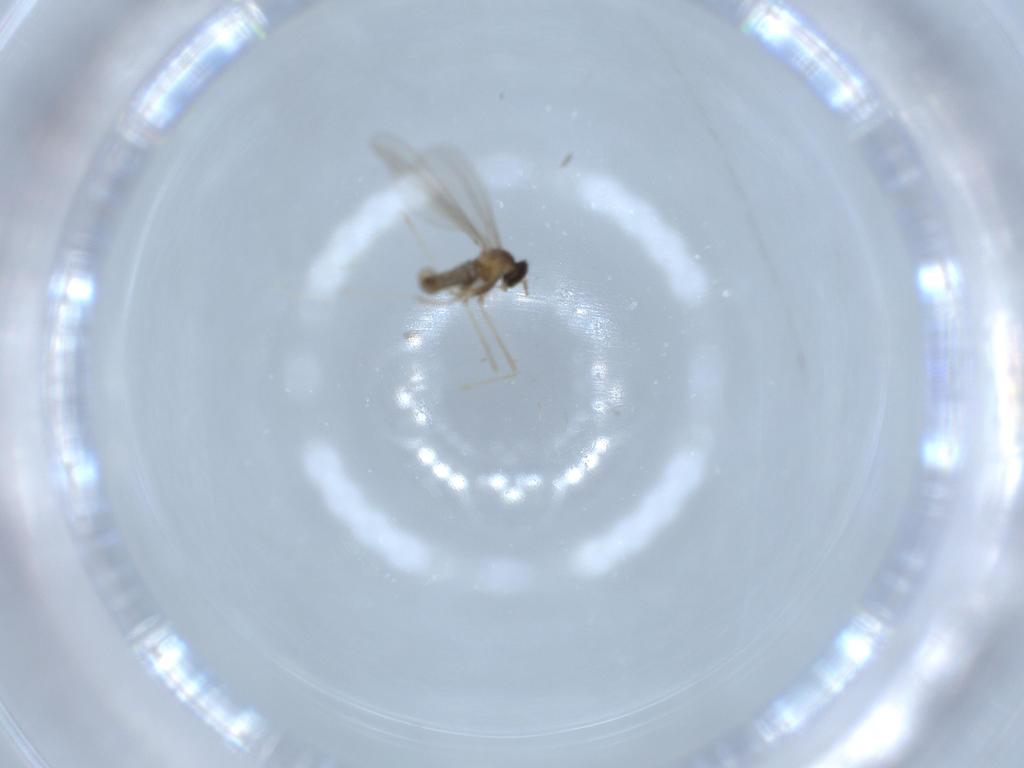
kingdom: Animalia
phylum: Arthropoda
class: Insecta
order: Diptera
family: Cecidomyiidae
